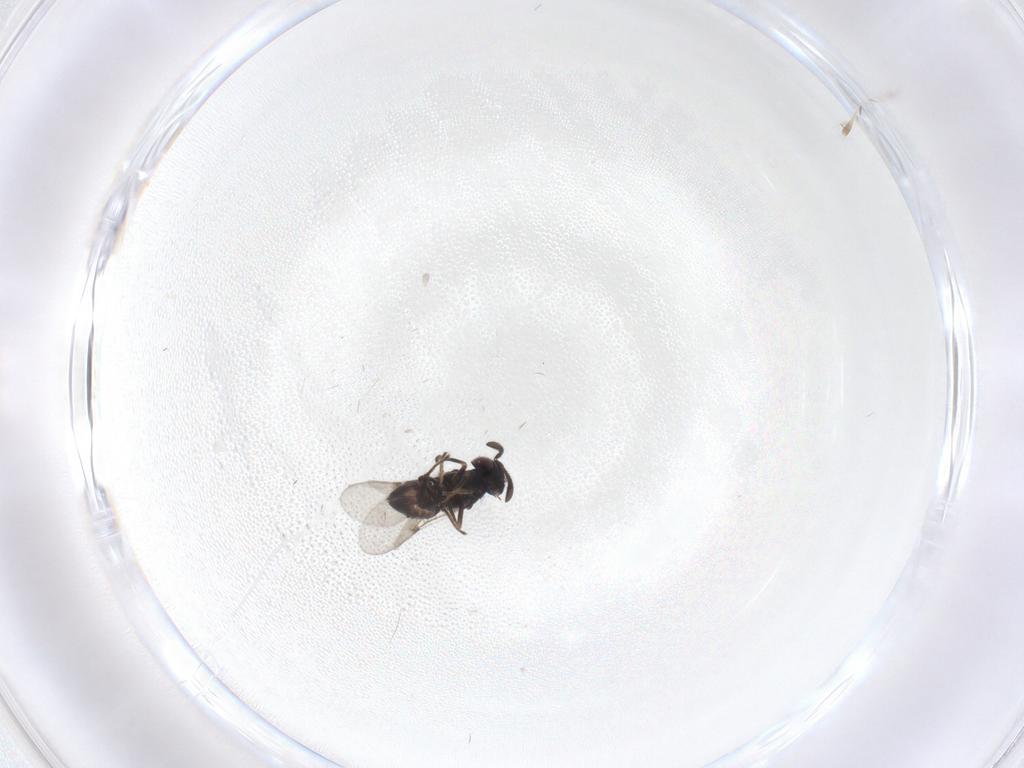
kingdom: Animalia
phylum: Arthropoda
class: Insecta
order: Hymenoptera
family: Encyrtidae
